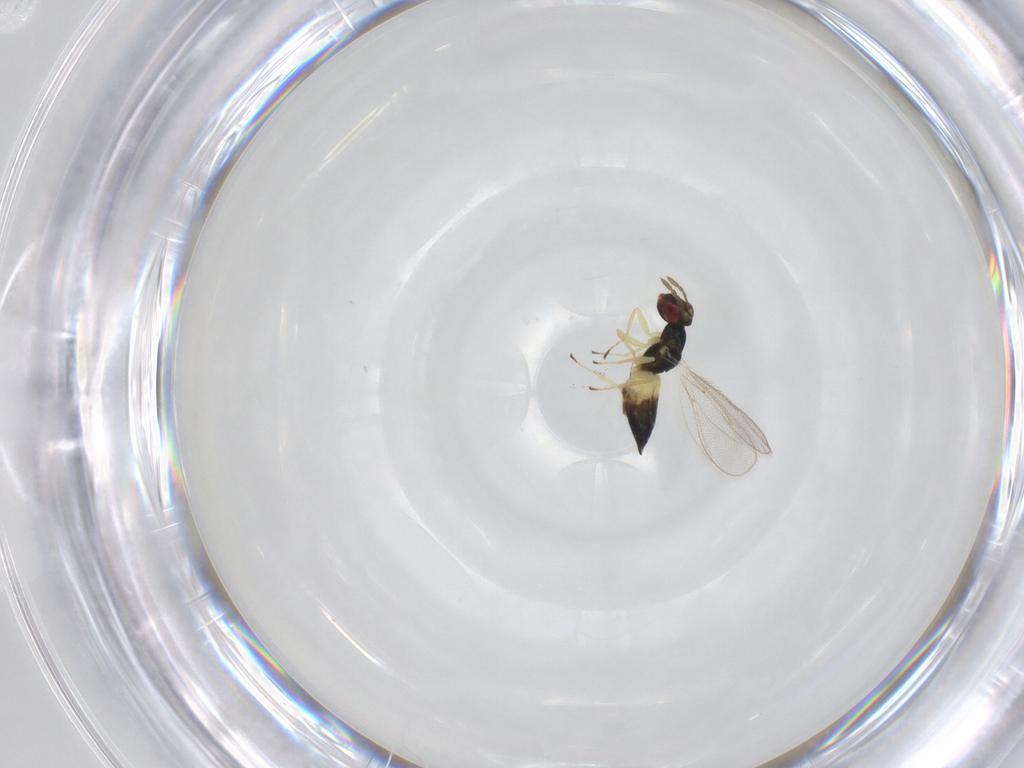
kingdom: Animalia
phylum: Arthropoda
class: Insecta
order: Hymenoptera
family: Eulophidae
